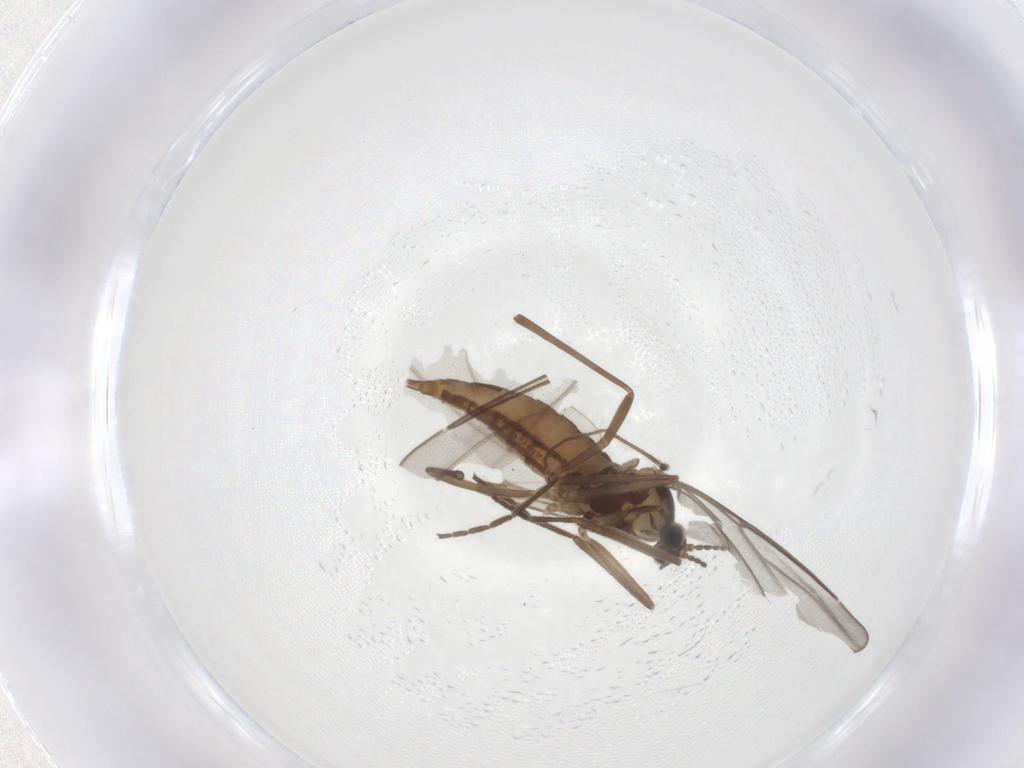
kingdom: Animalia
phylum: Arthropoda
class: Insecta
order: Diptera
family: Chironomidae
